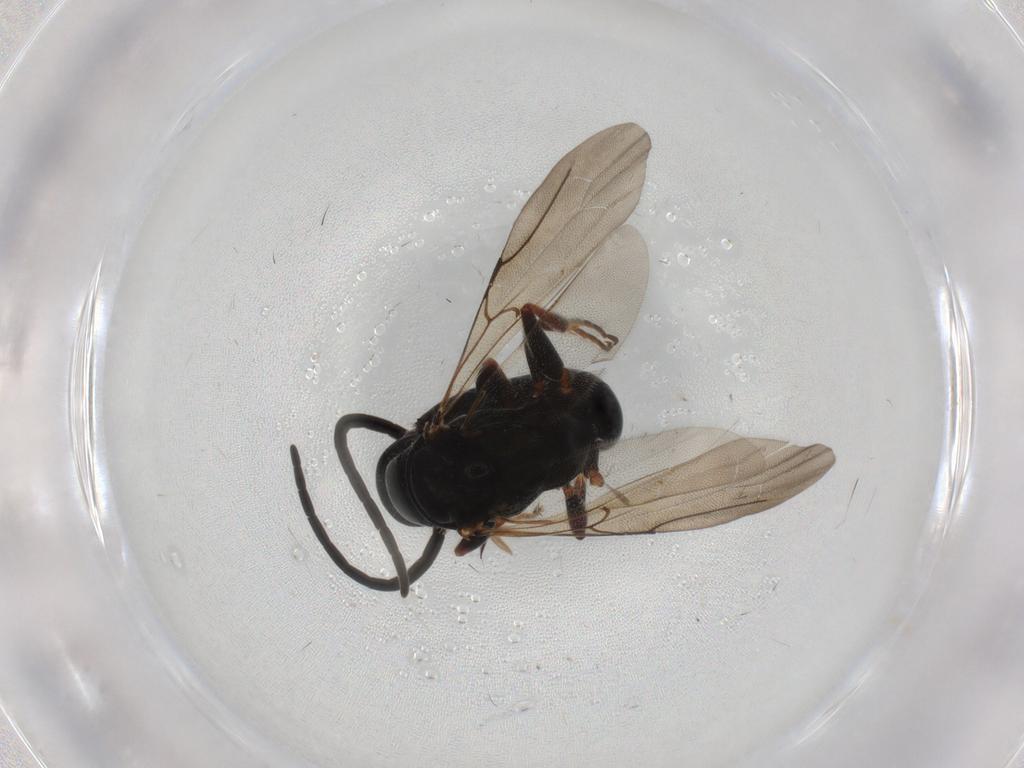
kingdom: Animalia
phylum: Arthropoda
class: Insecta
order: Hymenoptera
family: Bethylidae
